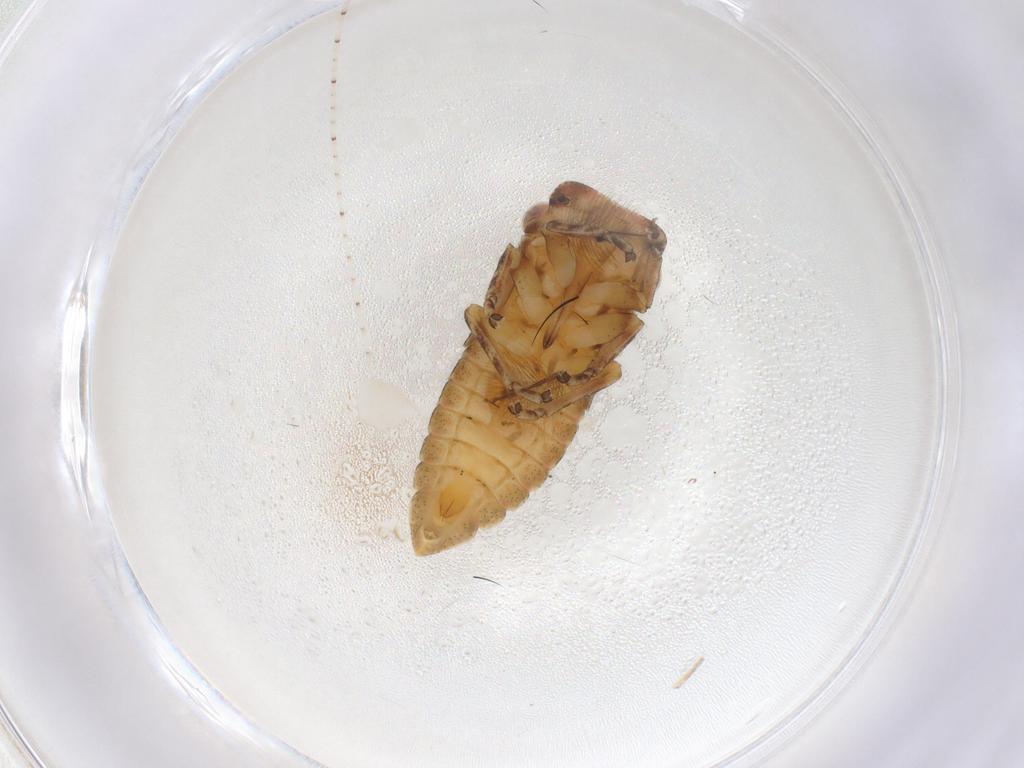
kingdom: Animalia
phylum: Arthropoda
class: Insecta
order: Hemiptera
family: Cicadellidae
